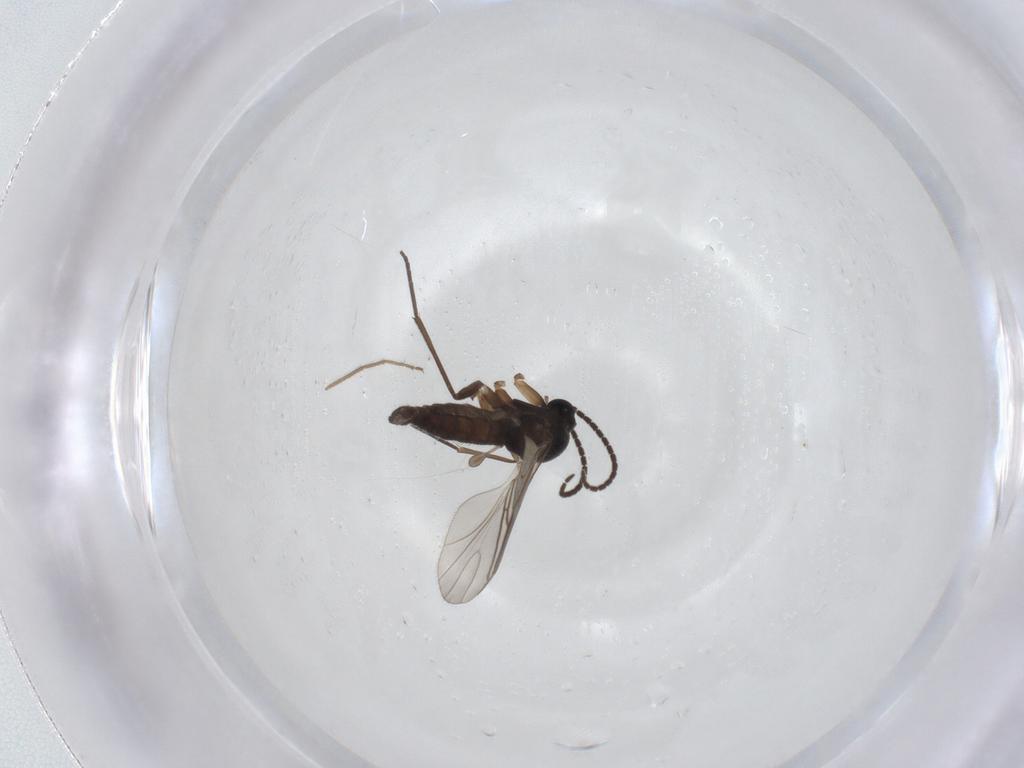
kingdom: Animalia
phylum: Arthropoda
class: Insecta
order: Diptera
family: Sciaridae
